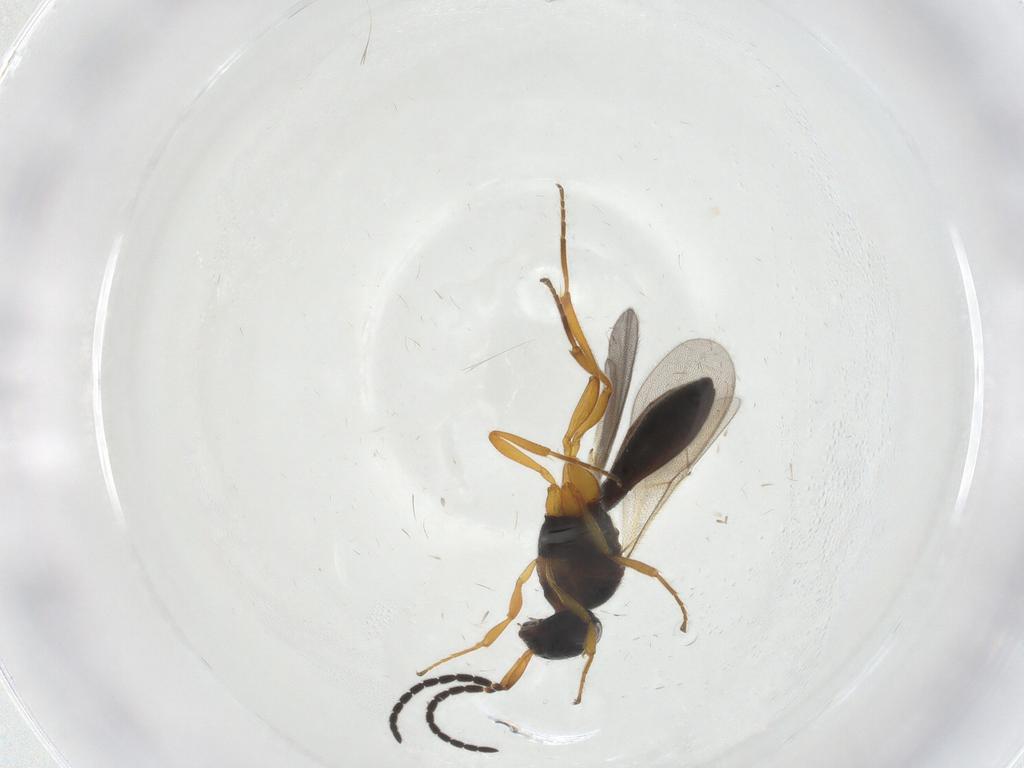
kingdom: Animalia
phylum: Arthropoda
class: Insecta
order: Hymenoptera
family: Scelionidae
